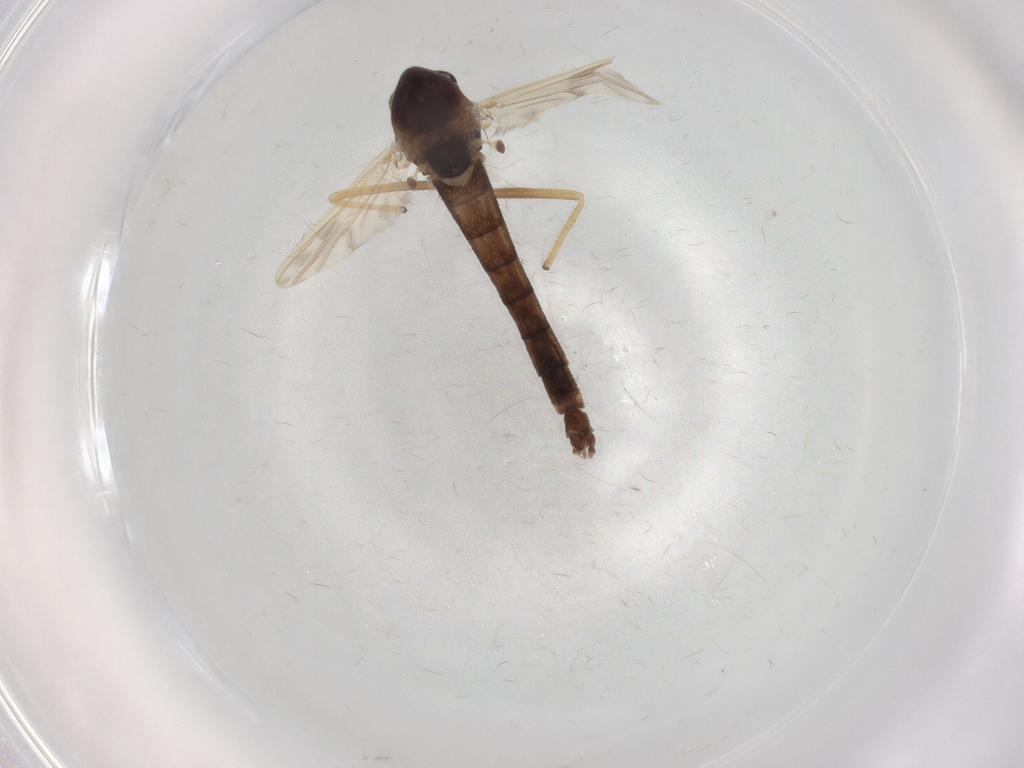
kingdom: Animalia
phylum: Arthropoda
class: Insecta
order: Diptera
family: Chironomidae
